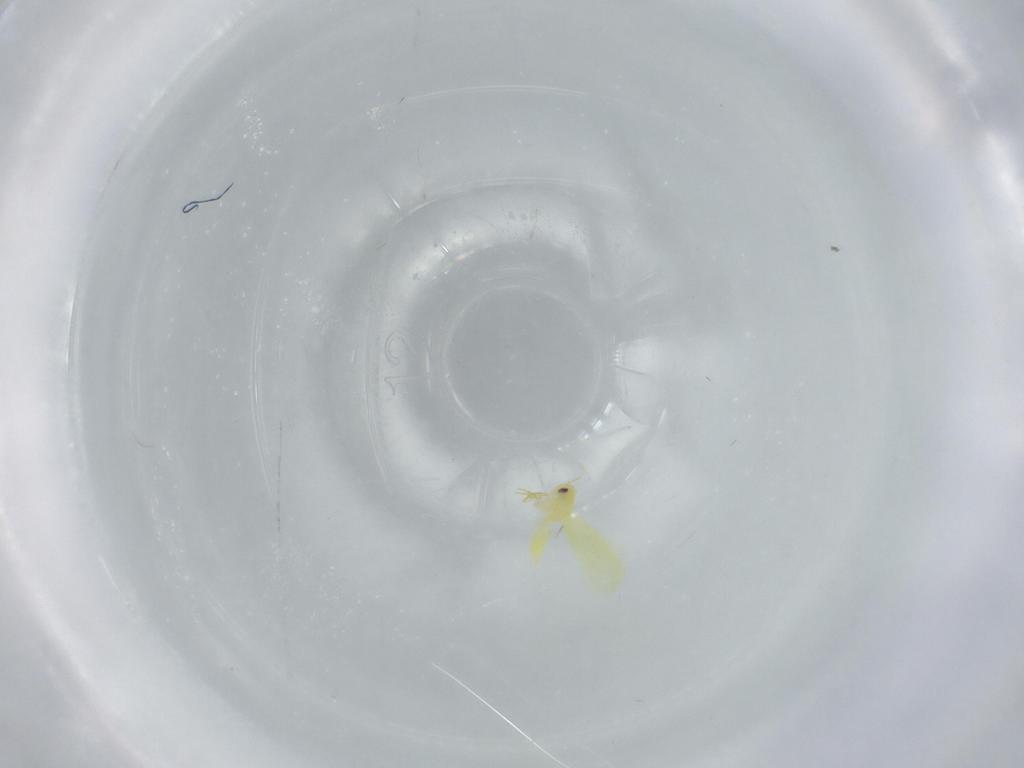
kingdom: Animalia
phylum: Arthropoda
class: Insecta
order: Hemiptera
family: Aleyrodidae
